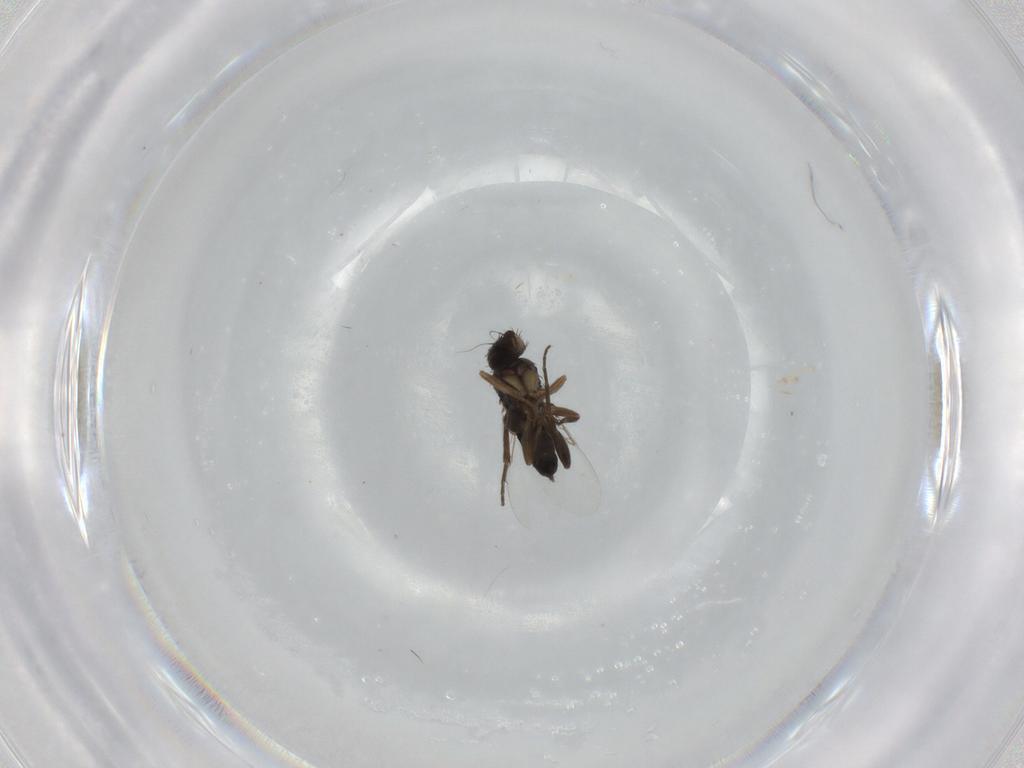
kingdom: Animalia
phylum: Arthropoda
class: Insecta
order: Diptera
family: Phoridae
